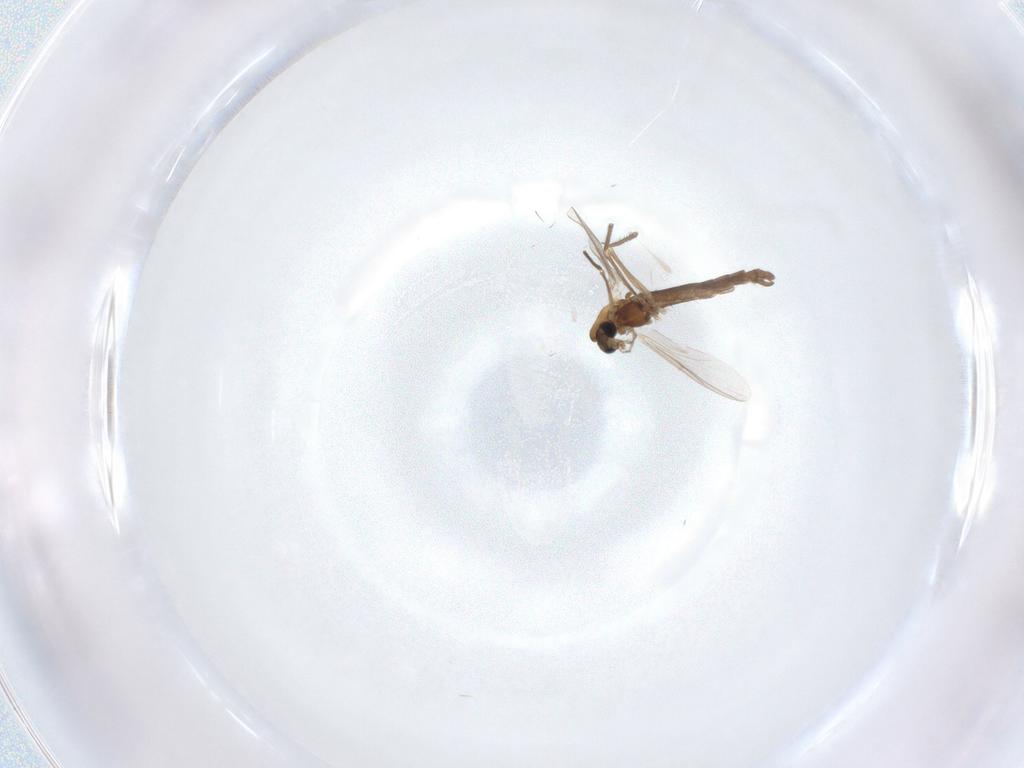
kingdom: Animalia
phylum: Arthropoda
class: Insecta
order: Diptera
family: Chironomidae
